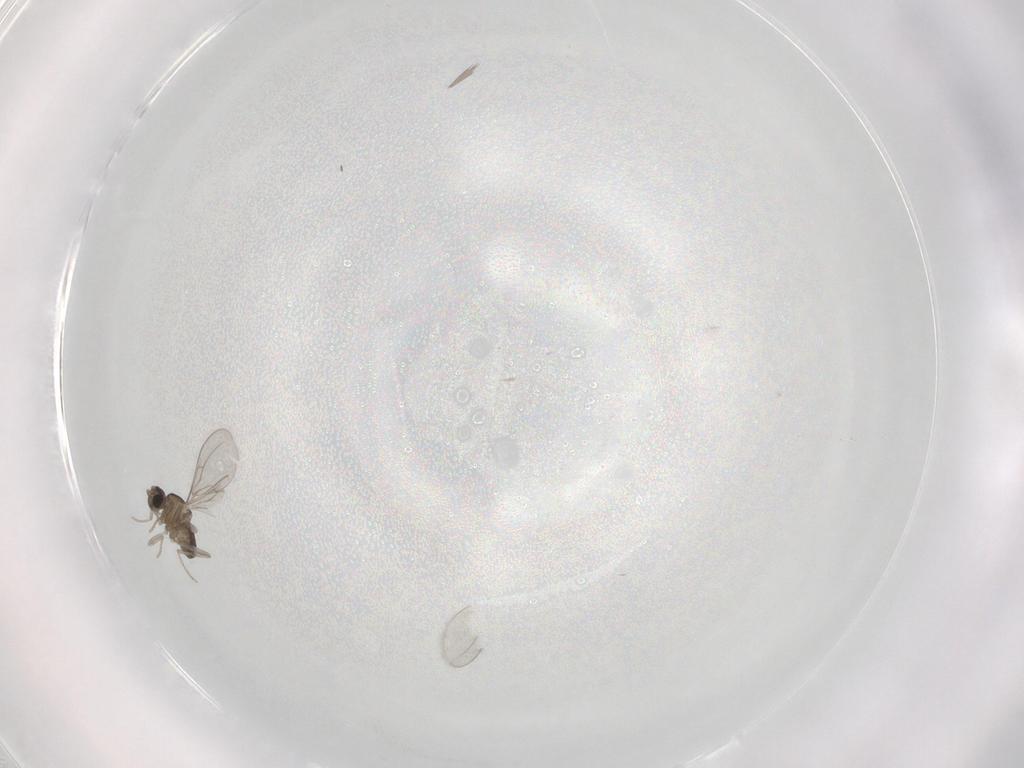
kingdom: Animalia
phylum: Arthropoda
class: Insecta
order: Diptera
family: Cecidomyiidae
